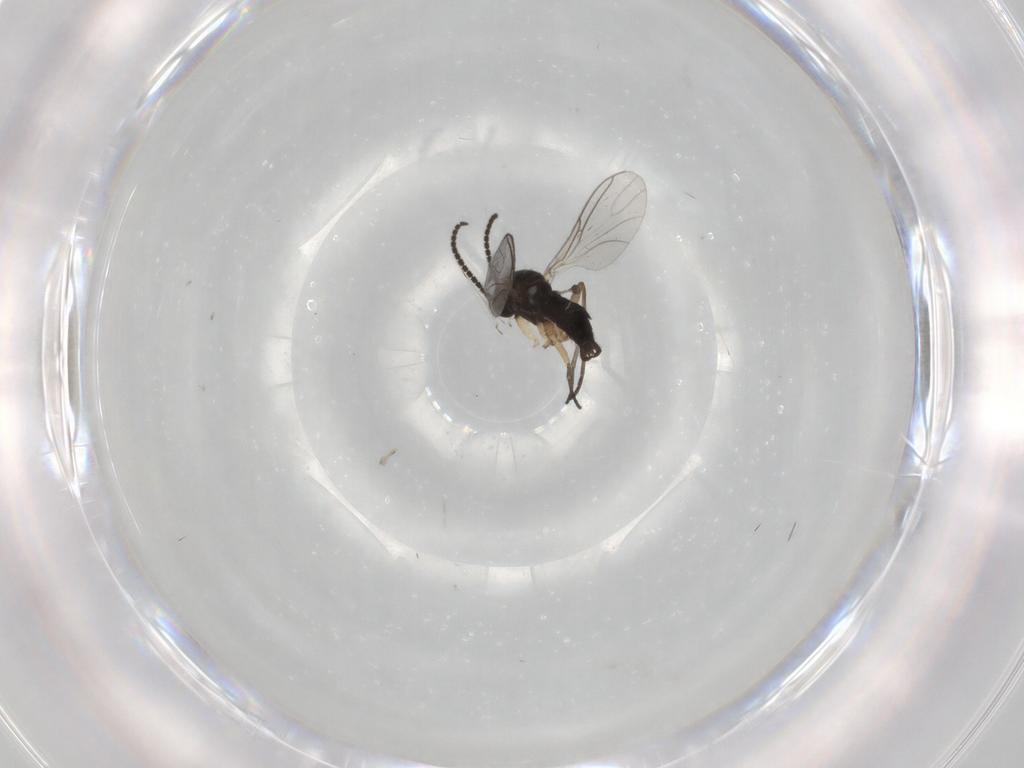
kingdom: Animalia
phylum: Arthropoda
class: Insecta
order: Diptera
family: Sciaridae
